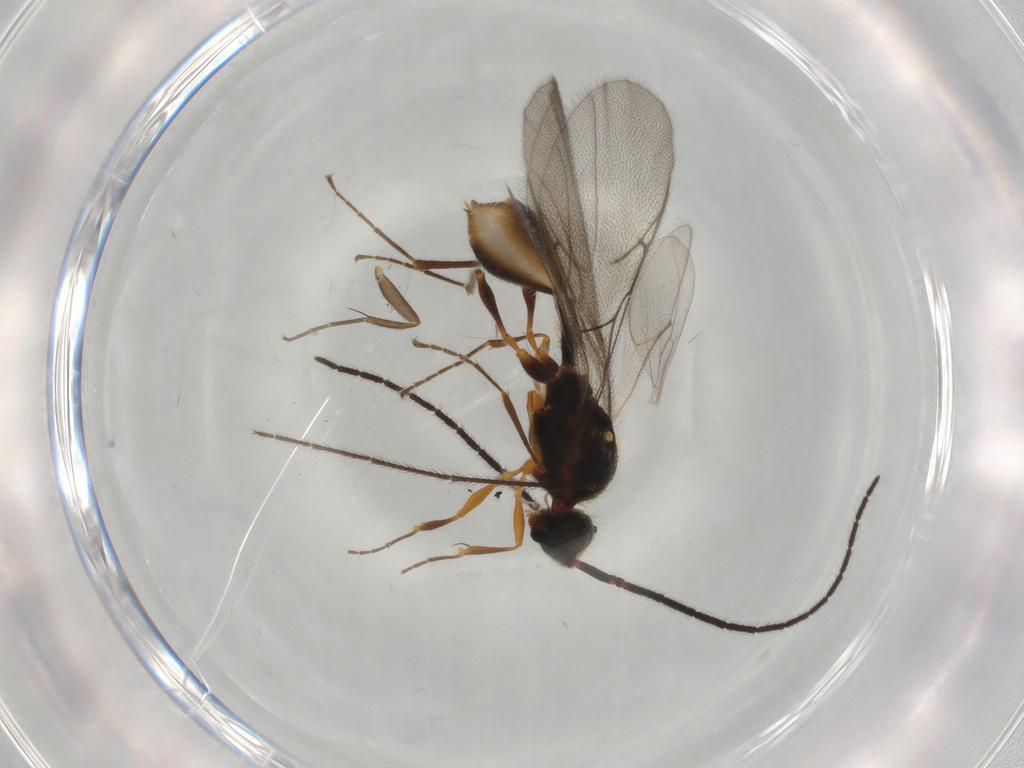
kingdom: Animalia
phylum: Arthropoda
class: Insecta
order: Hymenoptera
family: Diapriidae
